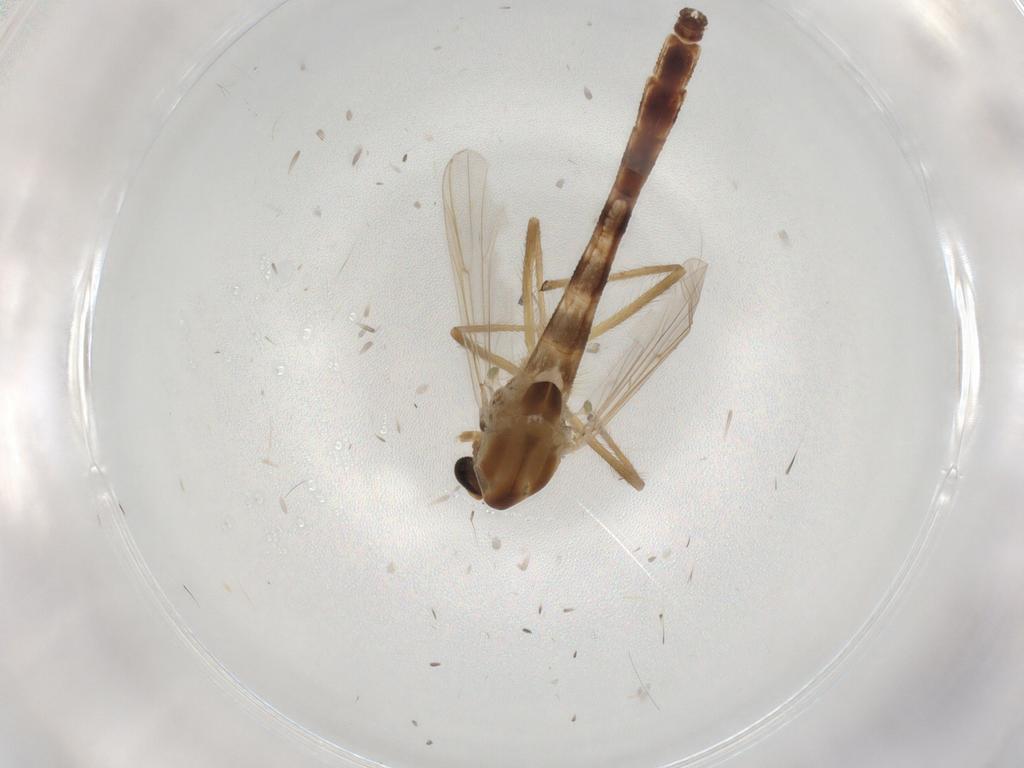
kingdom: Animalia
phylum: Arthropoda
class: Insecta
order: Diptera
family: Chironomidae
